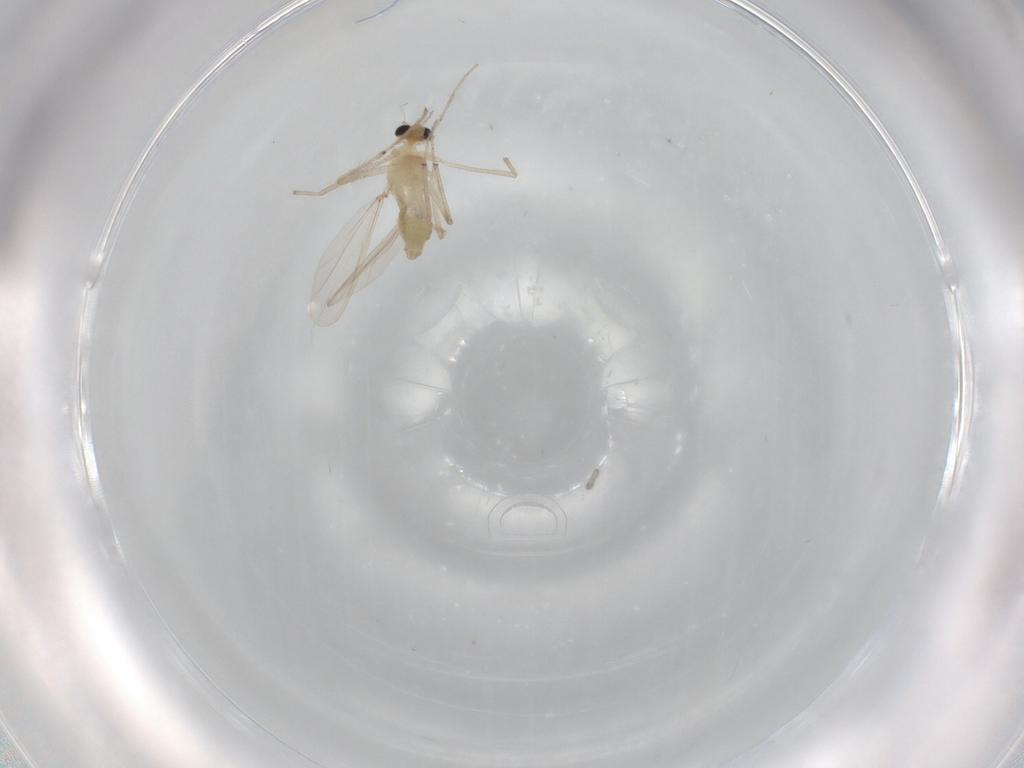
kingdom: Animalia
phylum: Arthropoda
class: Insecta
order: Diptera
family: Chironomidae
